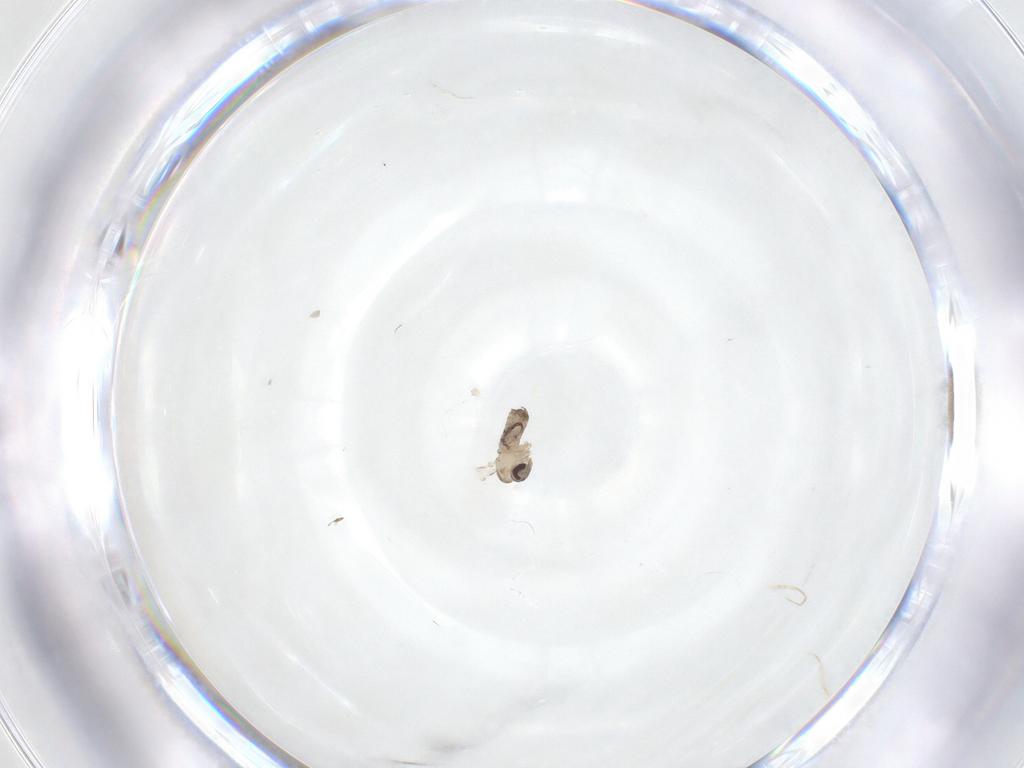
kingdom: Animalia
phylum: Arthropoda
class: Insecta
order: Diptera
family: Psychodidae
